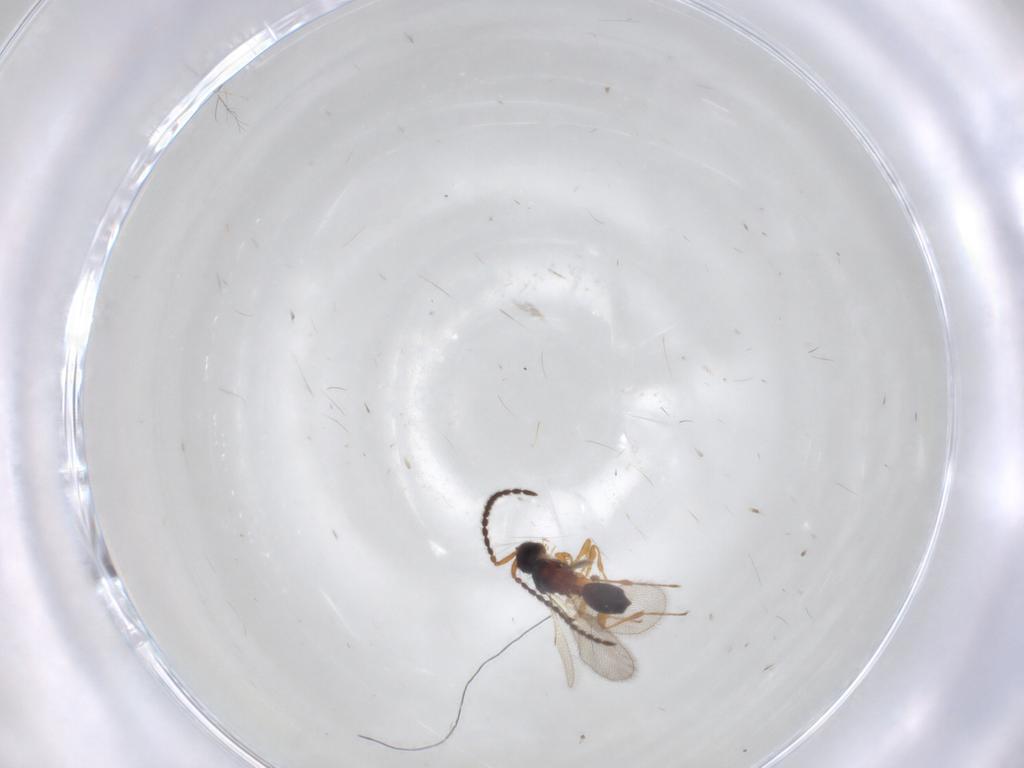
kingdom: Animalia
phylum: Arthropoda
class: Insecta
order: Hymenoptera
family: Diapriidae
